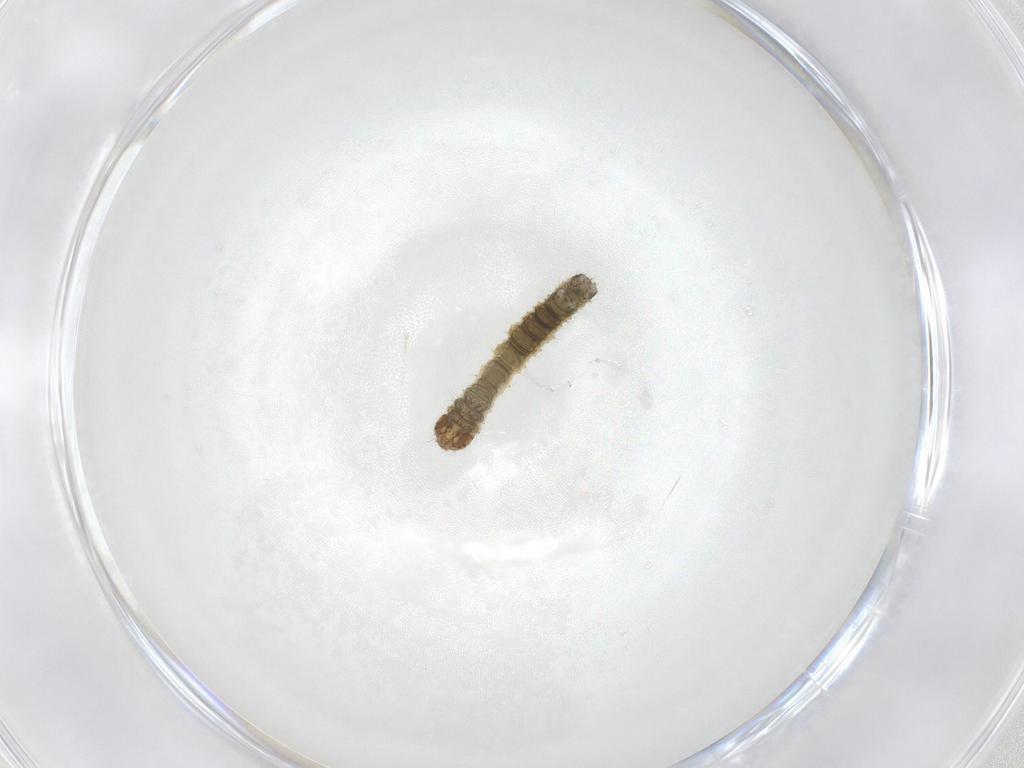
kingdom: Animalia
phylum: Arthropoda
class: Insecta
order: Lepidoptera
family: Geometridae
